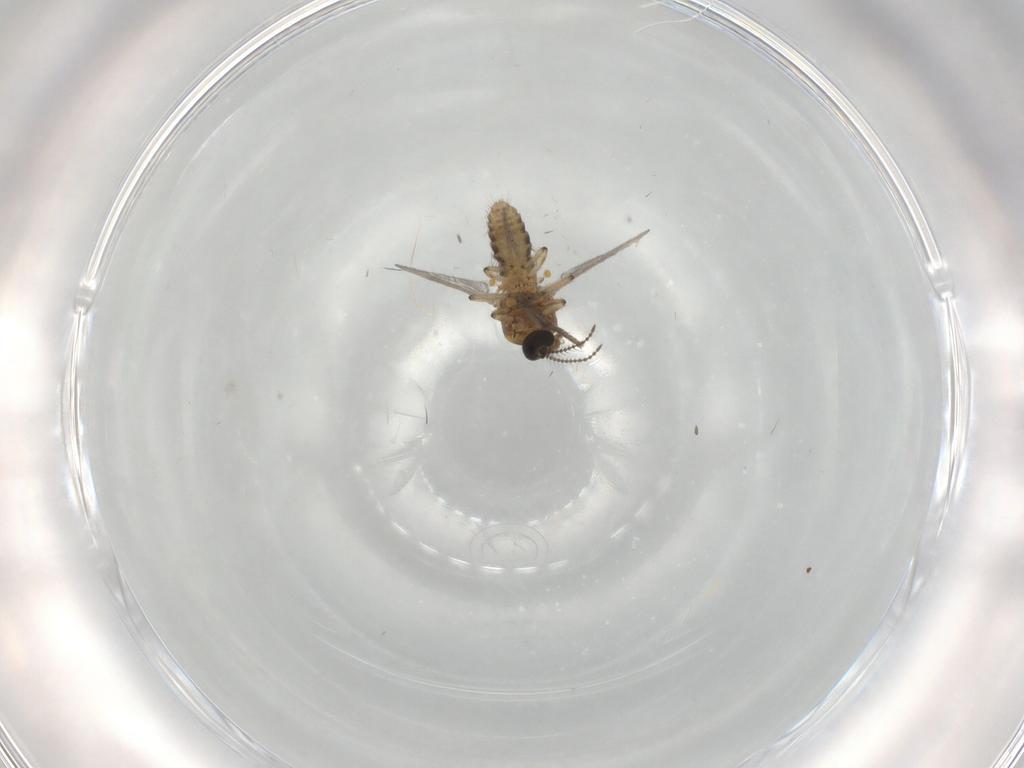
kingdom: Animalia
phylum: Arthropoda
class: Insecta
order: Diptera
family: Ceratopogonidae
